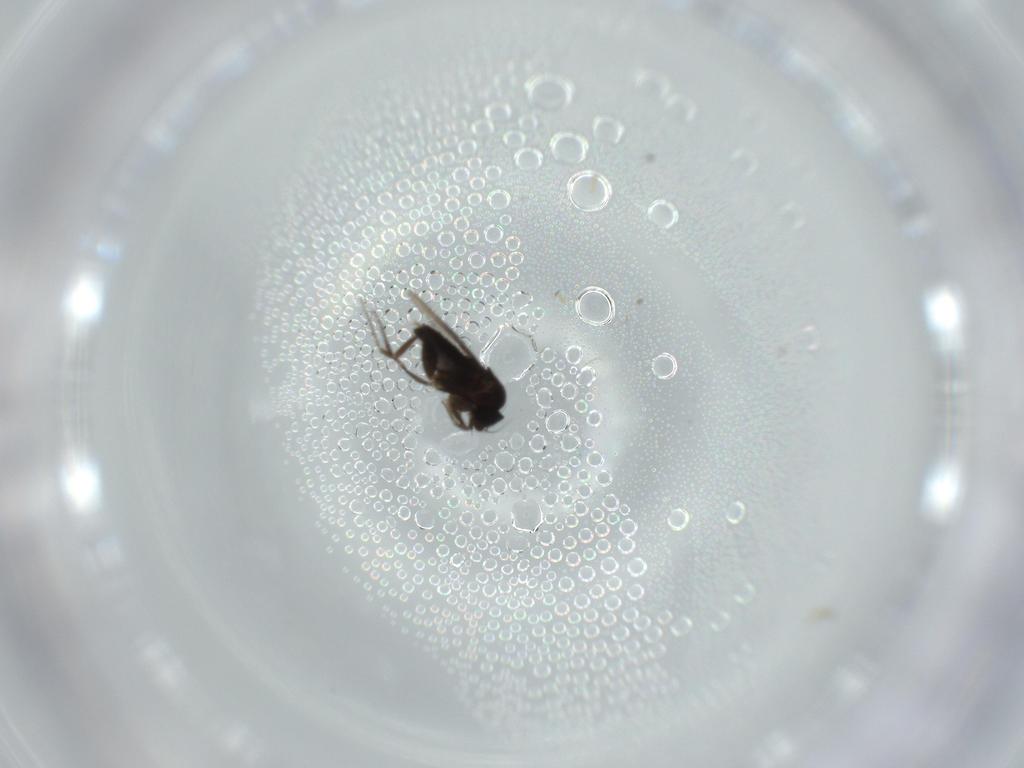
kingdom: Animalia
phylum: Arthropoda
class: Insecta
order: Diptera
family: Phoridae
